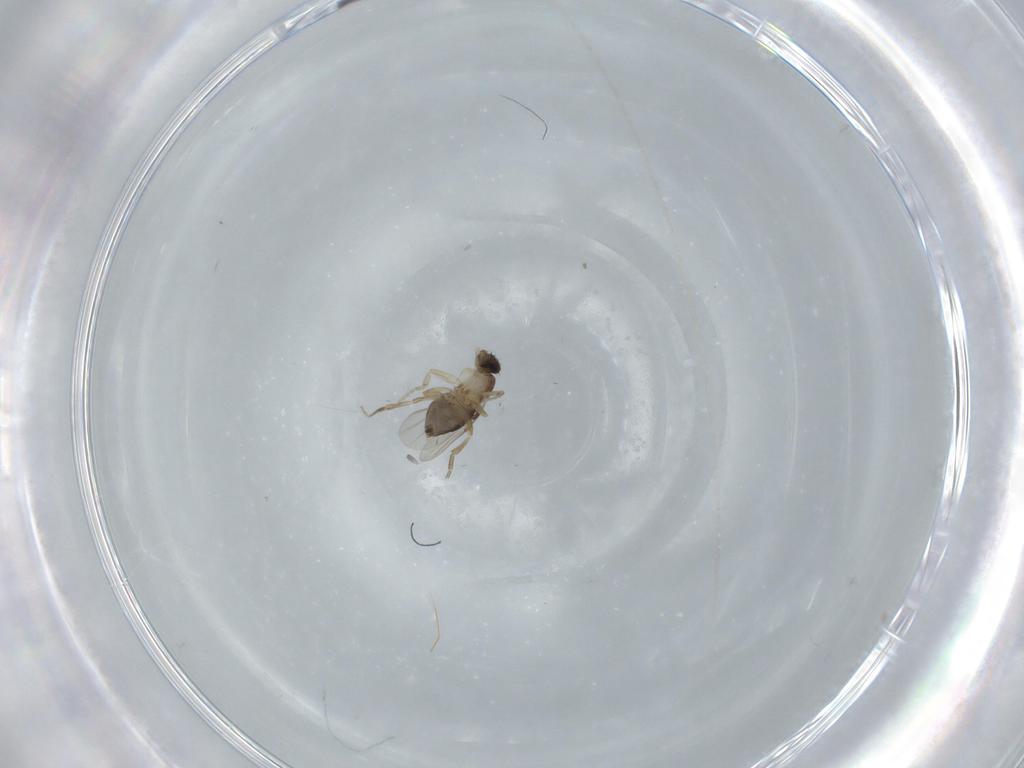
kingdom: Animalia
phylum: Arthropoda
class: Insecta
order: Diptera
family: Phoridae
